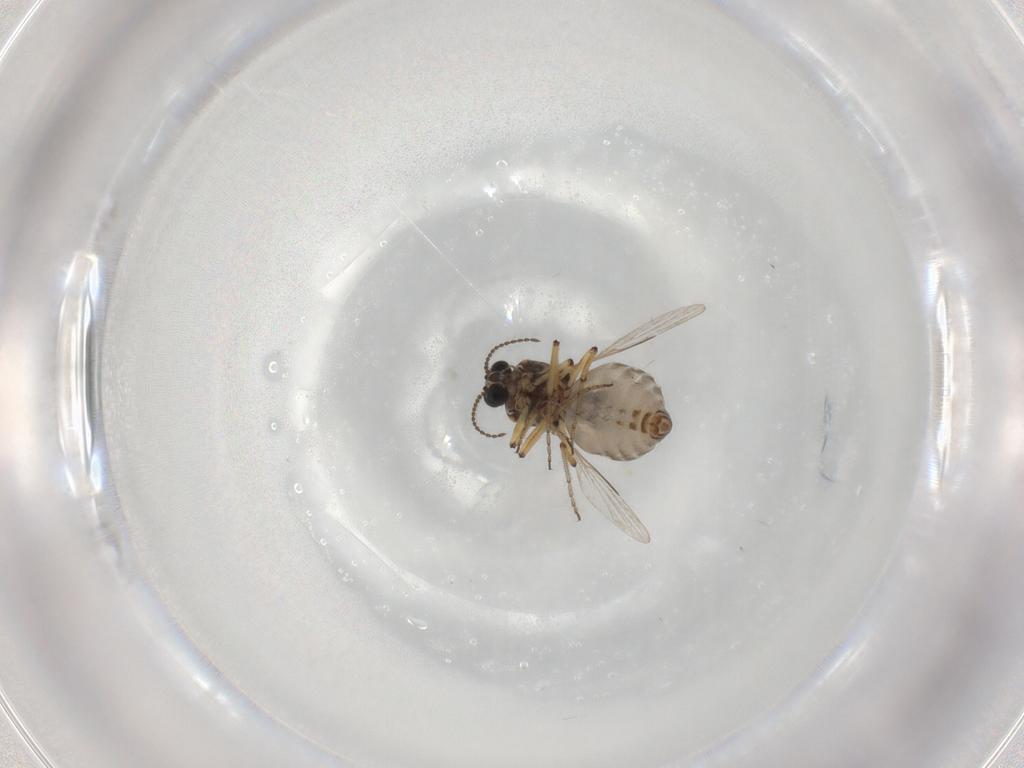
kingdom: Animalia
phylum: Arthropoda
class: Insecta
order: Diptera
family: Ceratopogonidae
